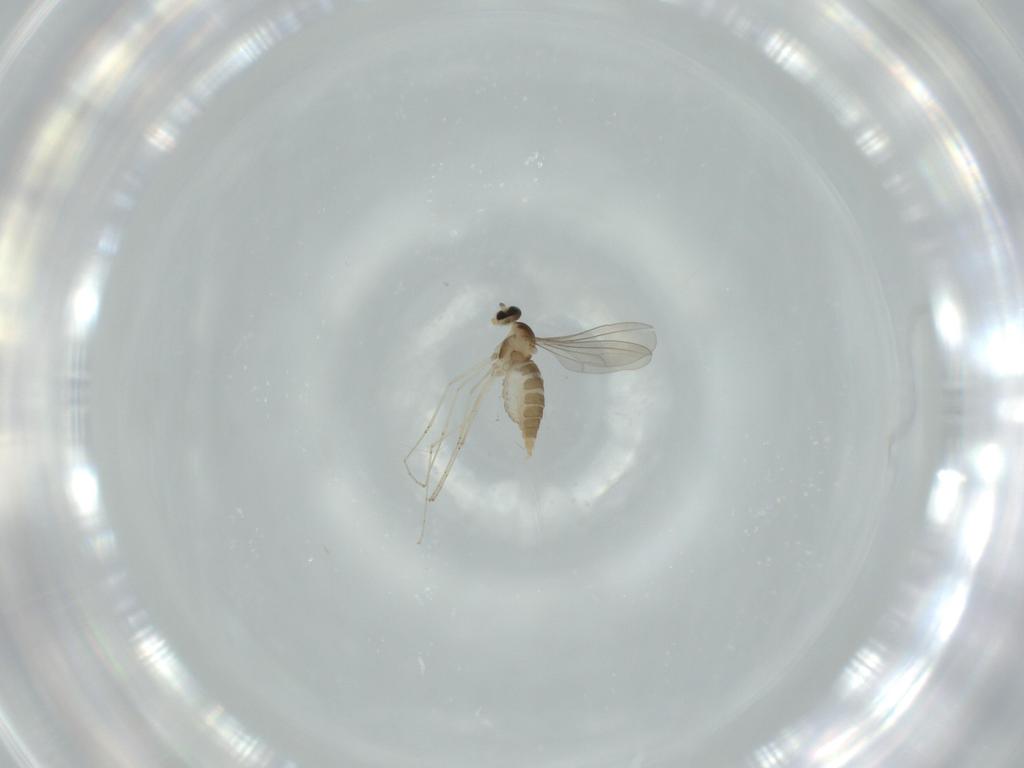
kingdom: Animalia
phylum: Arthropoda
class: Insecta
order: Diptera
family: Cecidomyiidae
